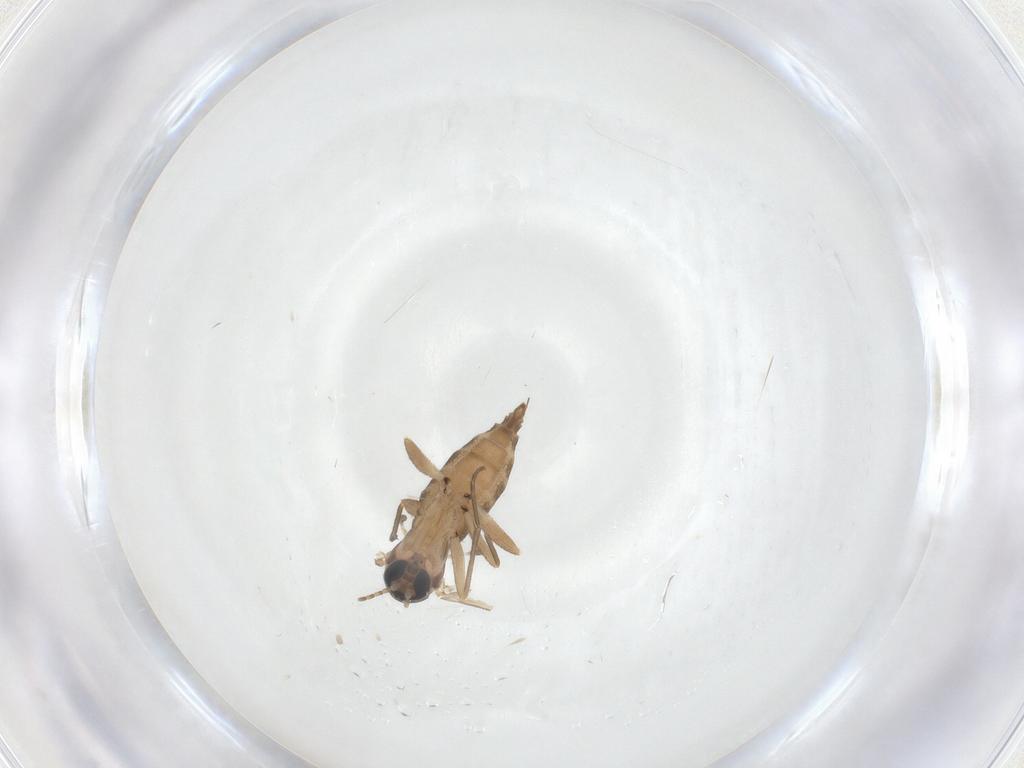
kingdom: Animalia
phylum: Arthropoda
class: Insecta
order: Diptera
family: Sciaridae
